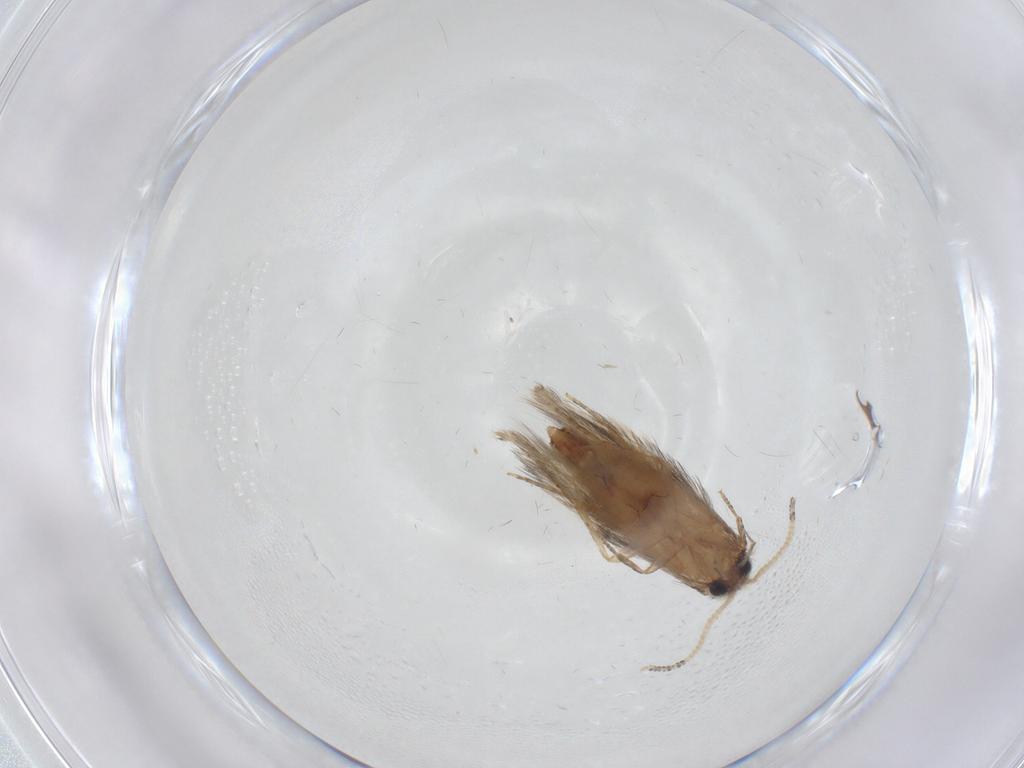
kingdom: Animalia
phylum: Arthropoda
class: Insecta
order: Trichoptera
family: Hydroptilidae
